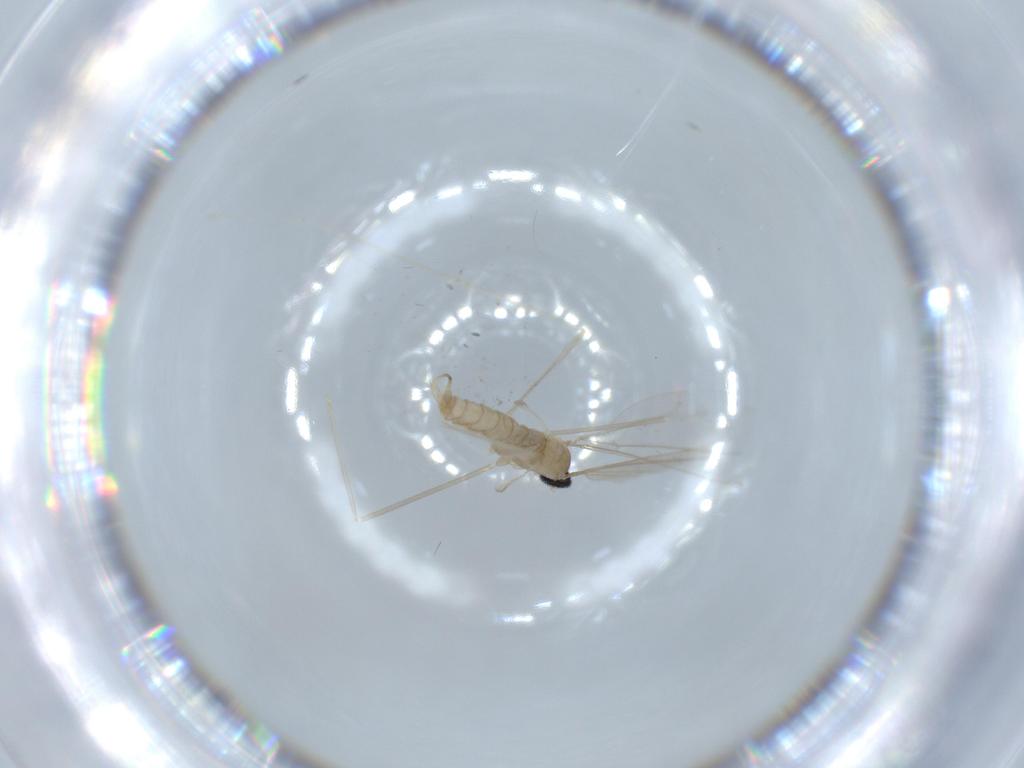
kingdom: Animalia
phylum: Arthropoda
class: Insecta
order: Diptera
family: Cecidomyiidae
